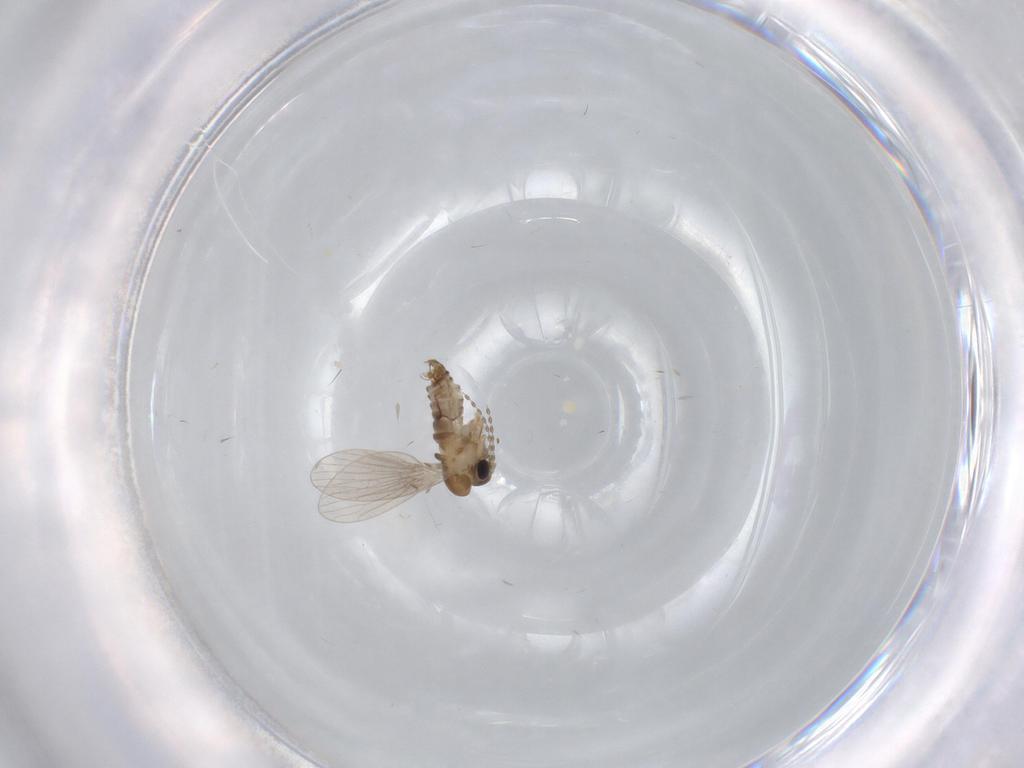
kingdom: Animalia
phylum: Arthropoda
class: Insecta
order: Diptera
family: Psychodidae
